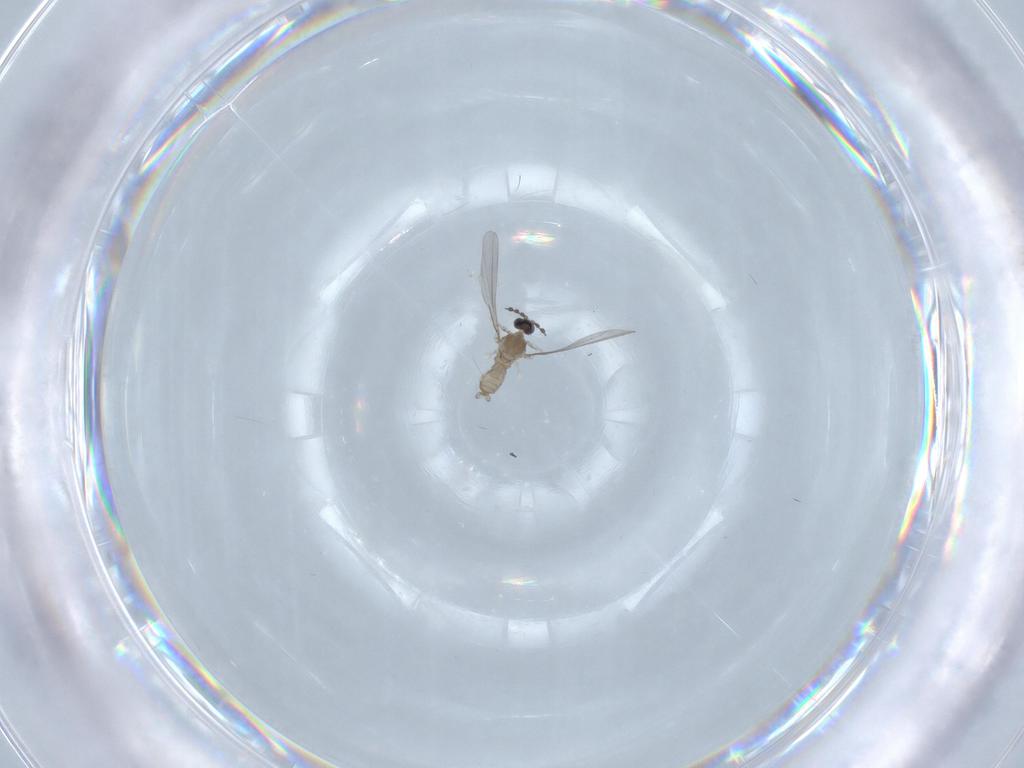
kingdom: Animalia
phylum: Arthropoda
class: Insecta
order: Diptera
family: Cecidomyiidae
